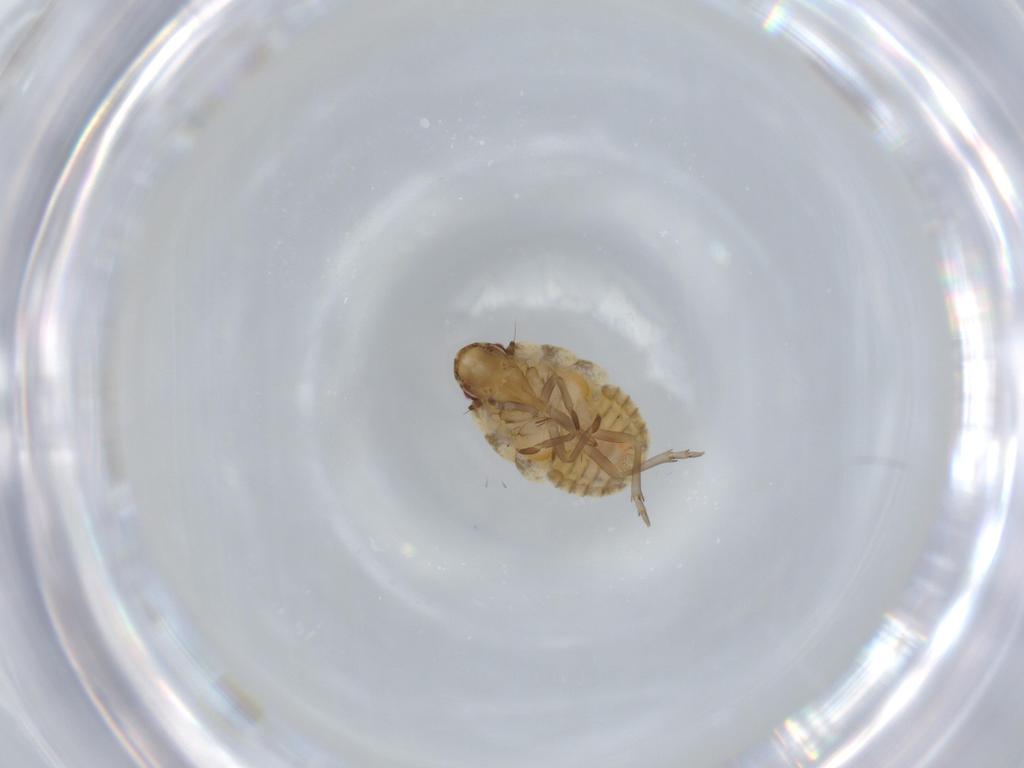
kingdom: Animalia
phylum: Arthropoda
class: Insecta
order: Hemiptera
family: Flatidae
